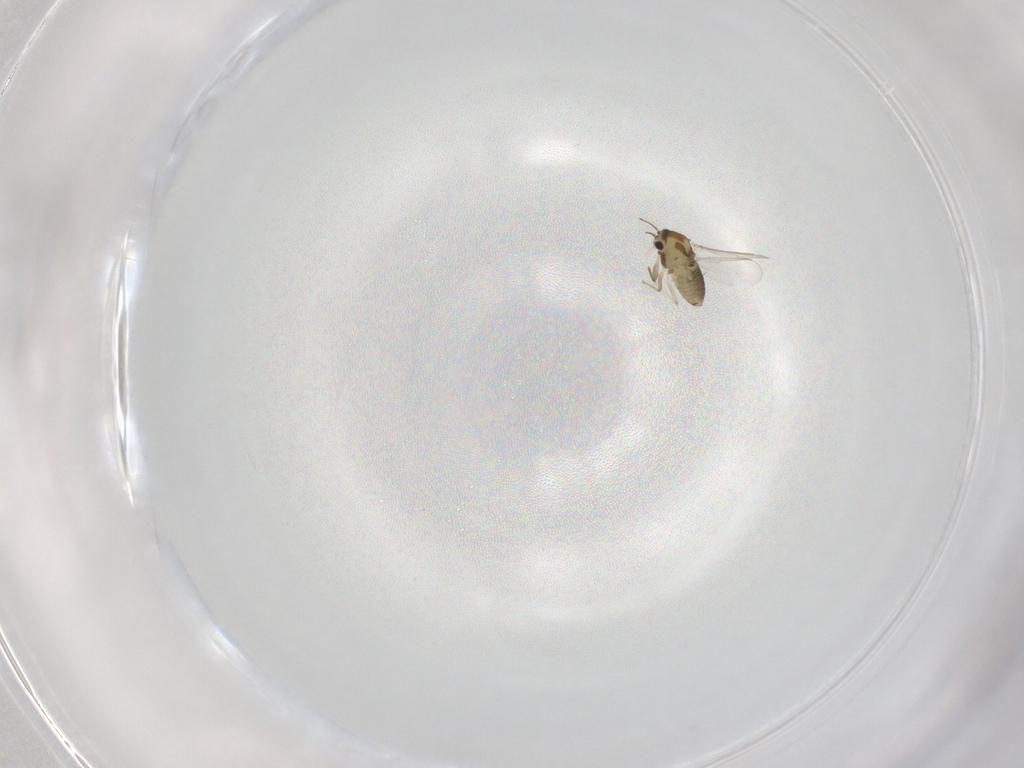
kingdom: Animalia
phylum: Arthropoda
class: Insecta
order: Diptera
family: Chironomidae
